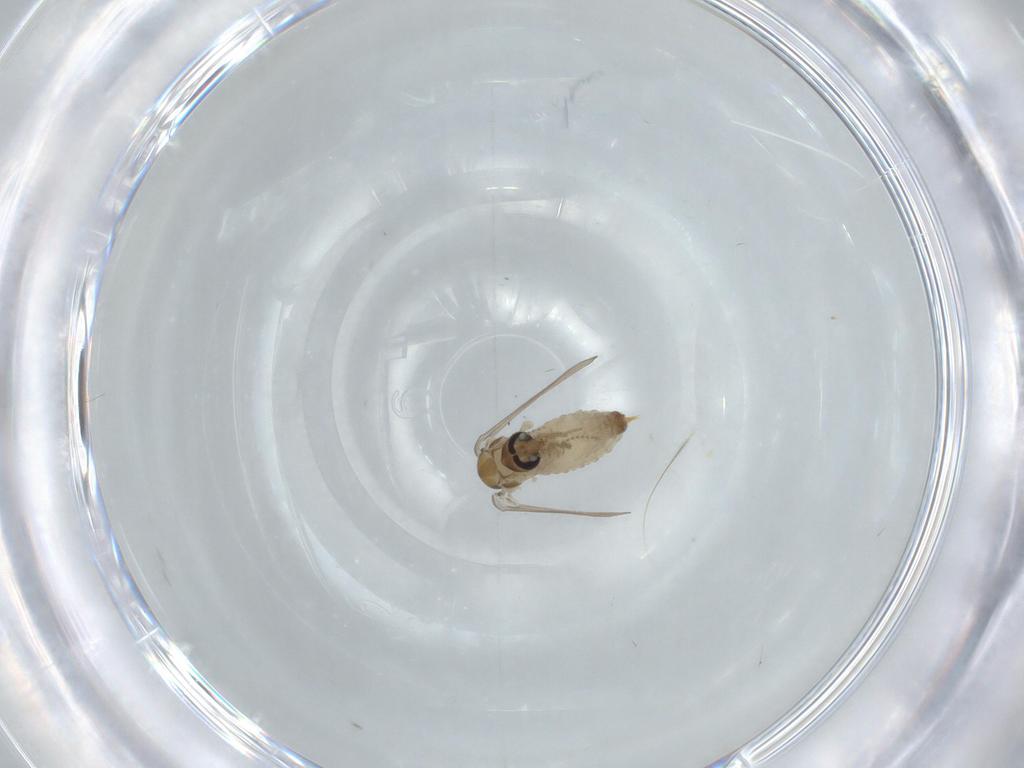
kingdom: Animalia
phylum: Arthropoda
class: Insecta
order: Diptera
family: Psychodidae
